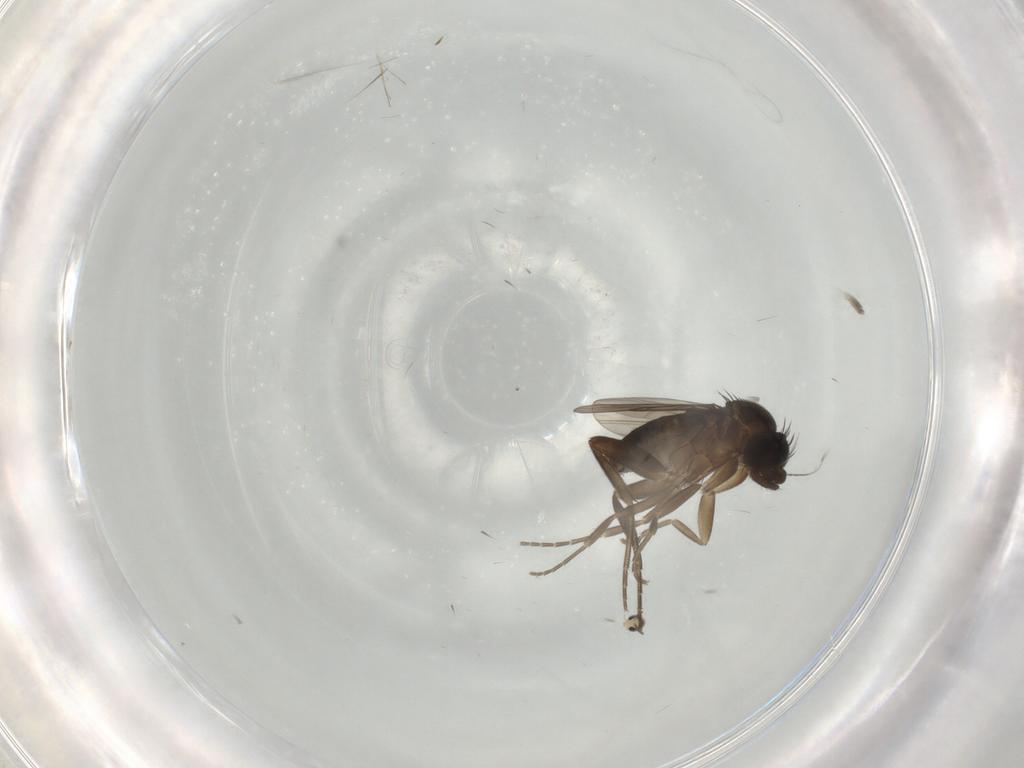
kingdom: Animalia
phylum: Arthropoda
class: Insecta
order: Diptera
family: Phoridae
